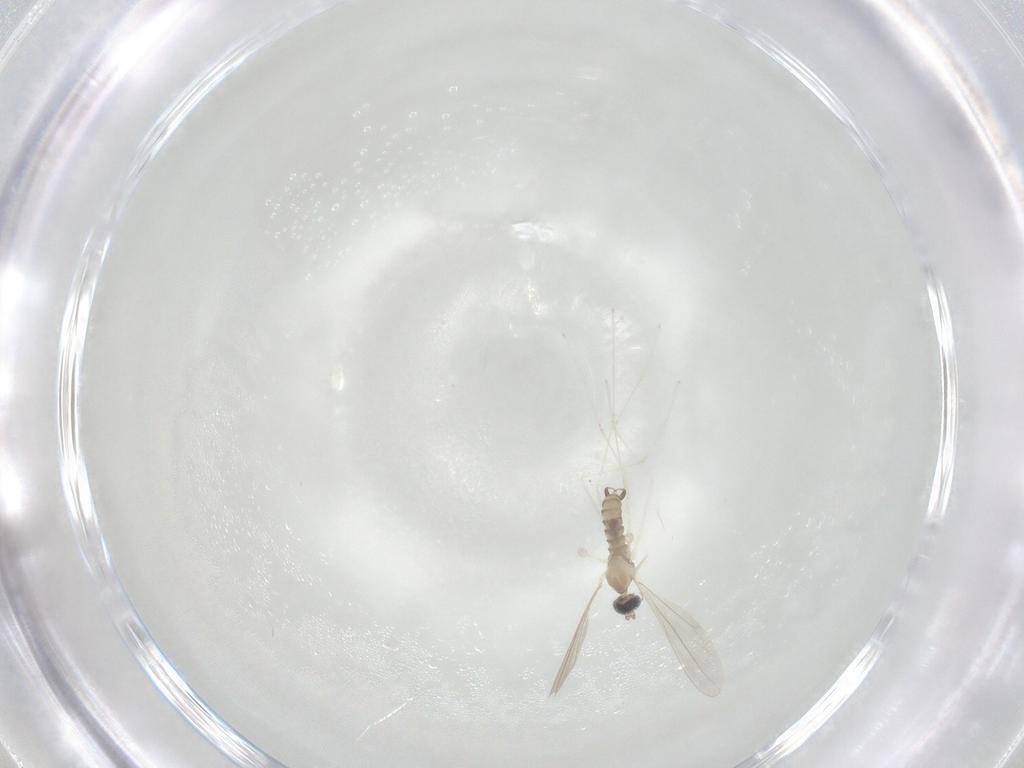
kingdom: Animalia
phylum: Arthropoda
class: Insecta
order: Diptera
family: Cecidomyiidae
